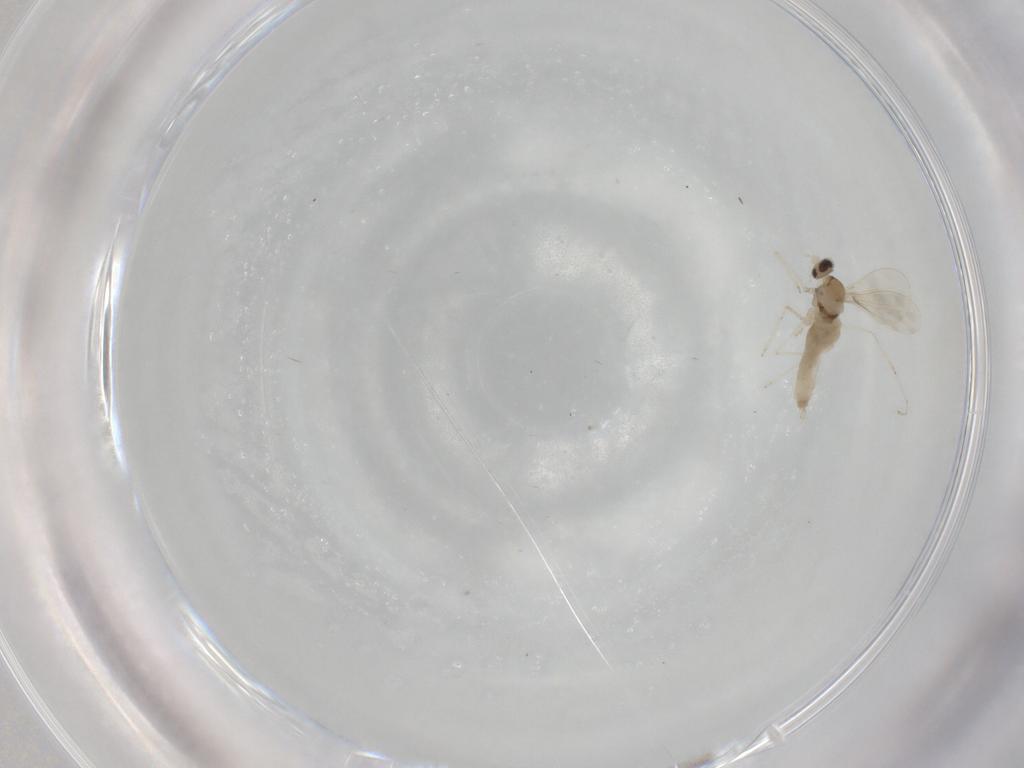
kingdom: Animalia
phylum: Arthropoda
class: Insecta
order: Diptera
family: Cecidomyiidae
